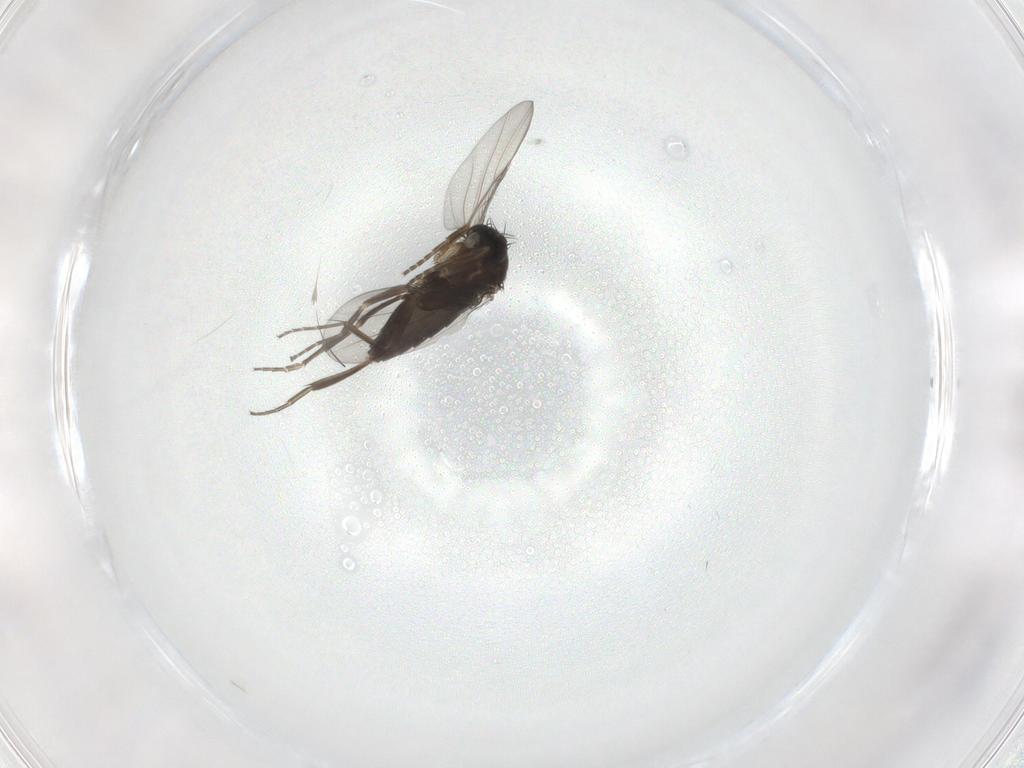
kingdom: Animalia
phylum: Arthropoda
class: Insecta
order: Diptera
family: Phoridae
